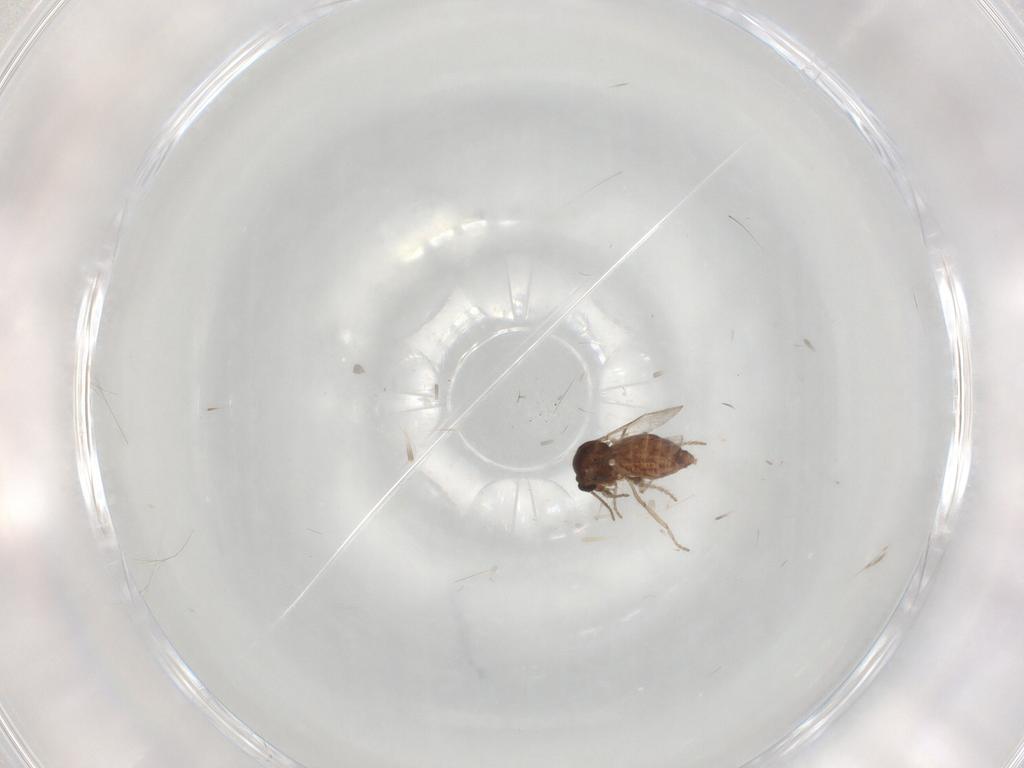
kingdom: Animalia
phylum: Arthropoda
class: Insecta
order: Diptera
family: Ceratopogonidae
